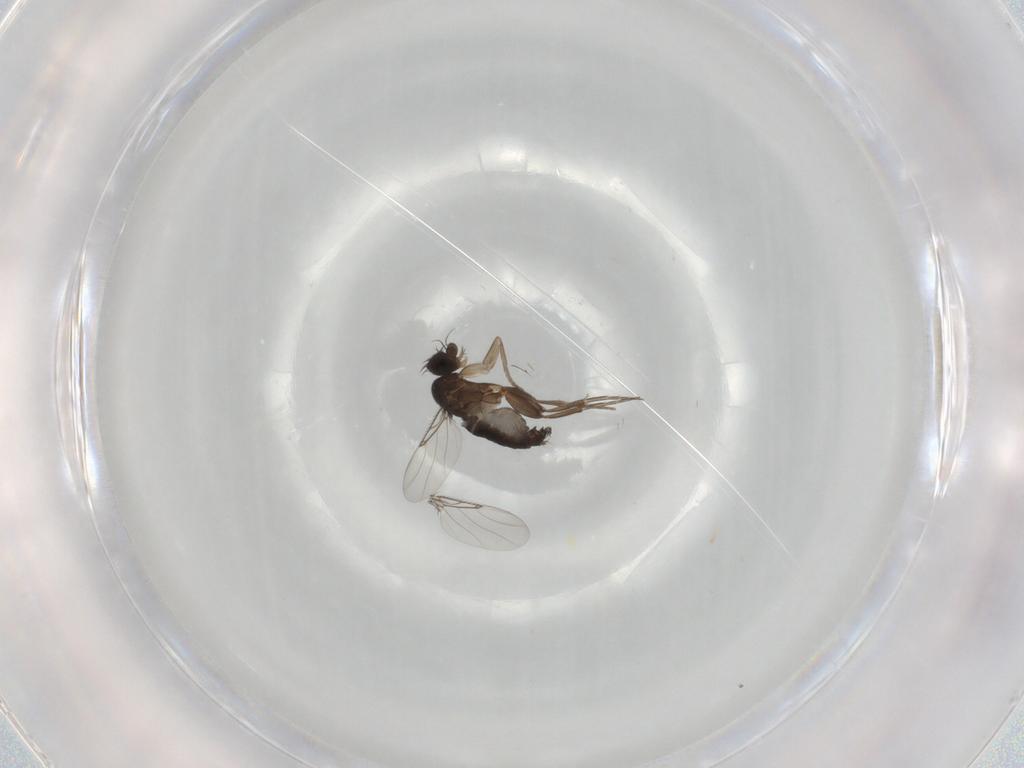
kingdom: Animalia
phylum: Arthropoda
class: Insecta
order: Diptera
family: Phoridae
